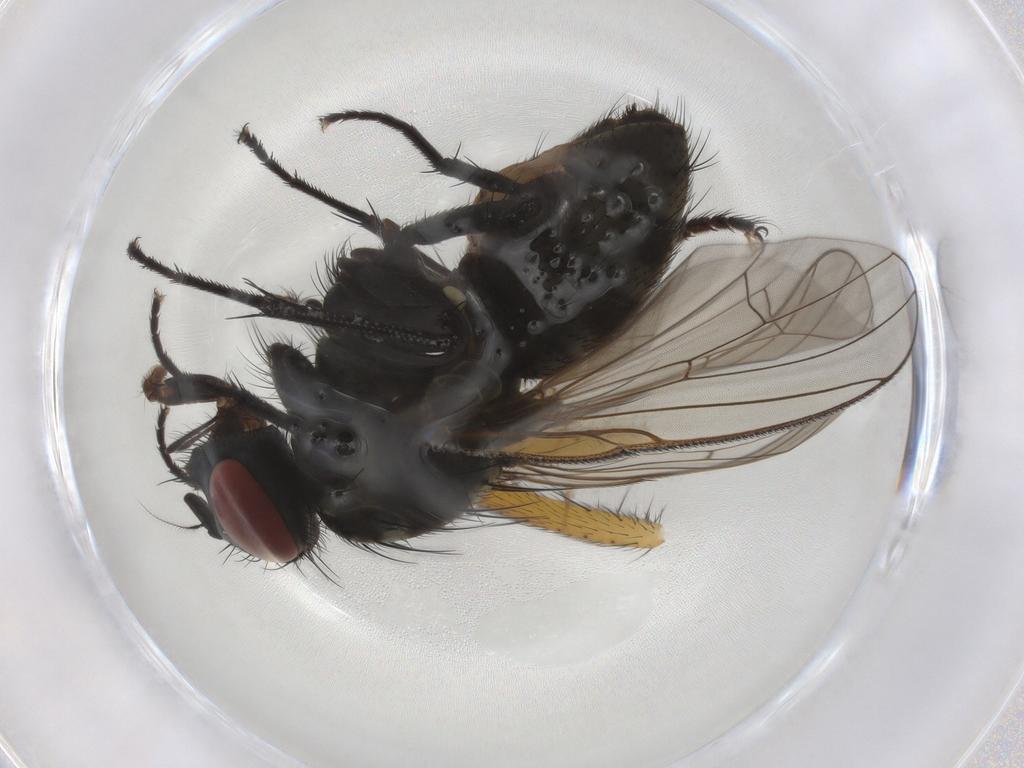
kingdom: Animalia
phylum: Arthropoda
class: Insecta
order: Diptera
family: Muscidae
